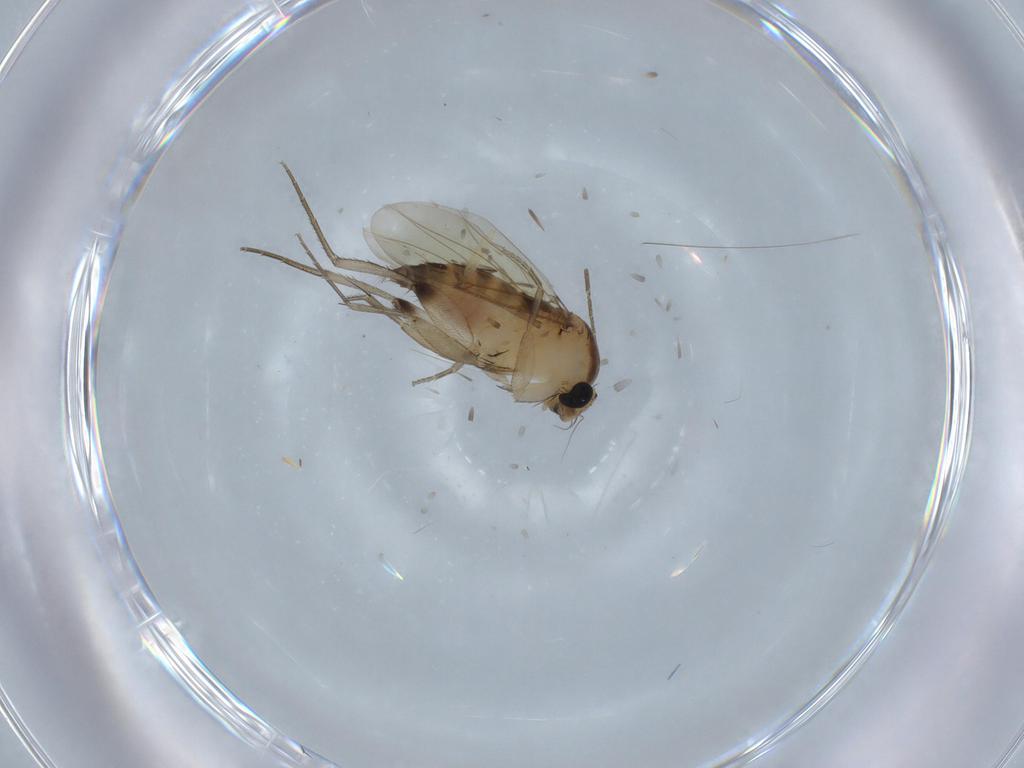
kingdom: Animalia
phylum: Arthropoda
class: Insecta
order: Diptera
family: Phoridae
